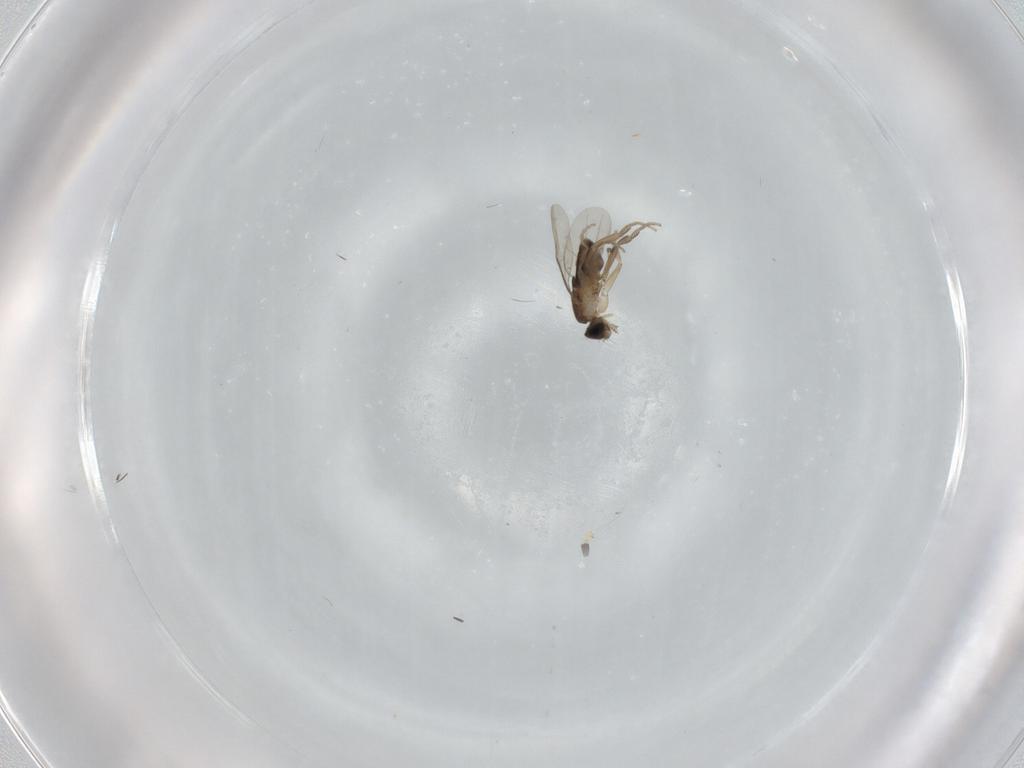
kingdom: Animalia
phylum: Arthropoda
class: Insecta
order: Diptera
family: Phoridae
